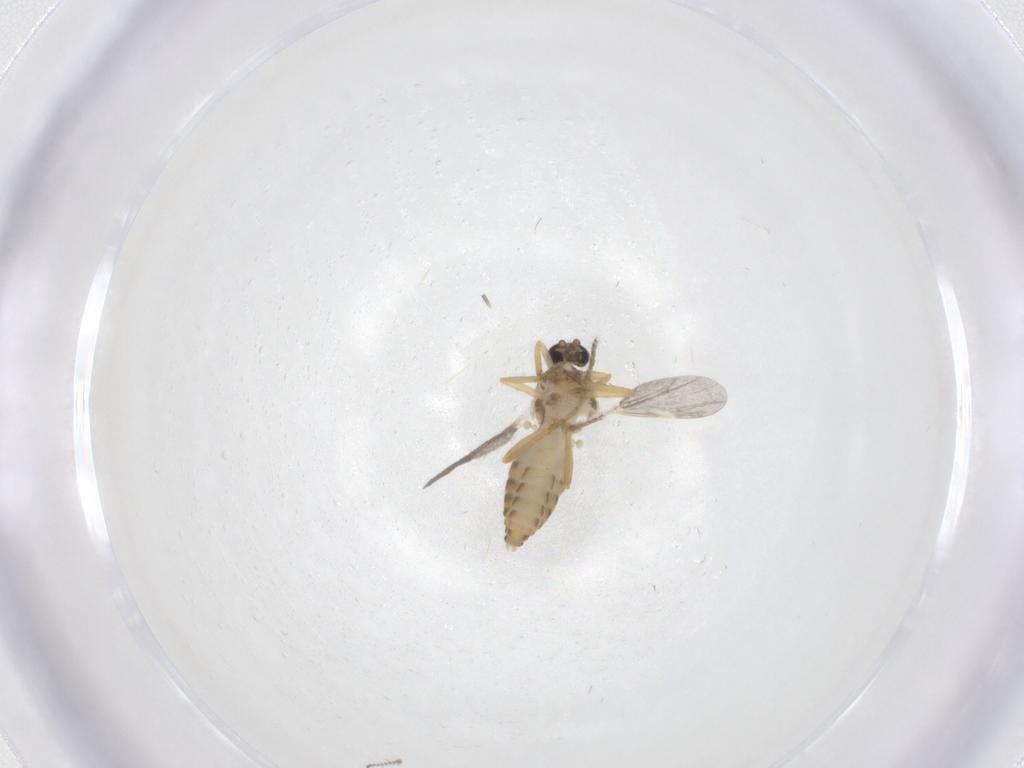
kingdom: Animalia
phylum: Arthropoda
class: Insecta
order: Diptera
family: Ceratopogonidae
